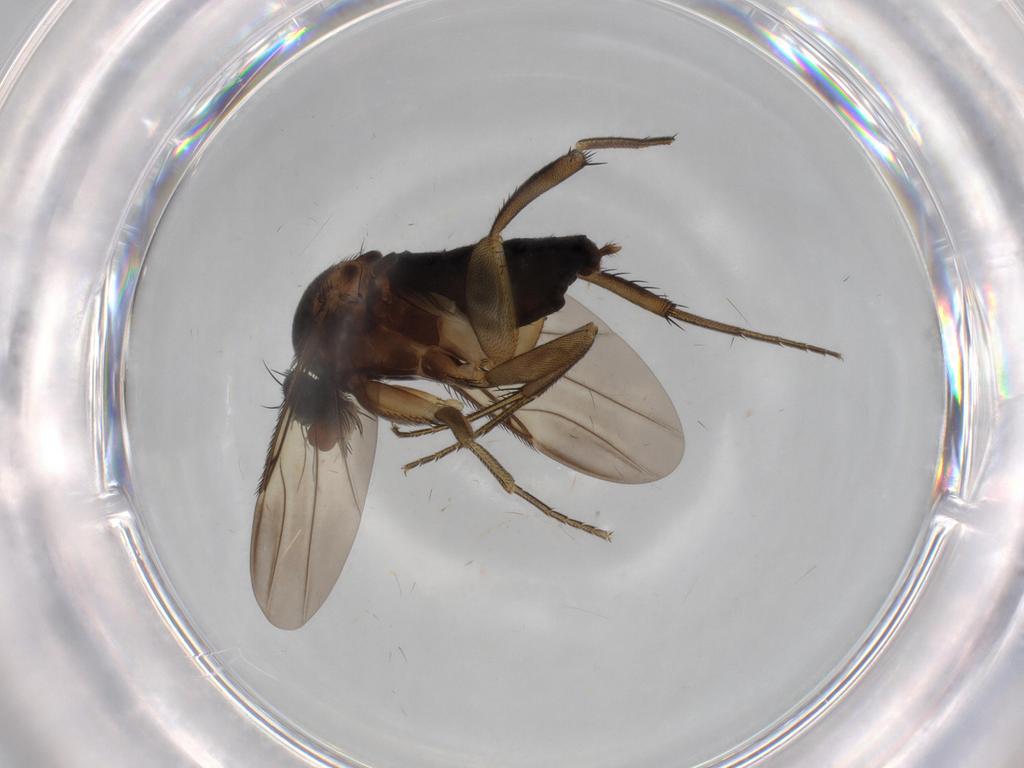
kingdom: Animalia
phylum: Arthropoda
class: Insecta
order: Diptera
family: Phoridae
